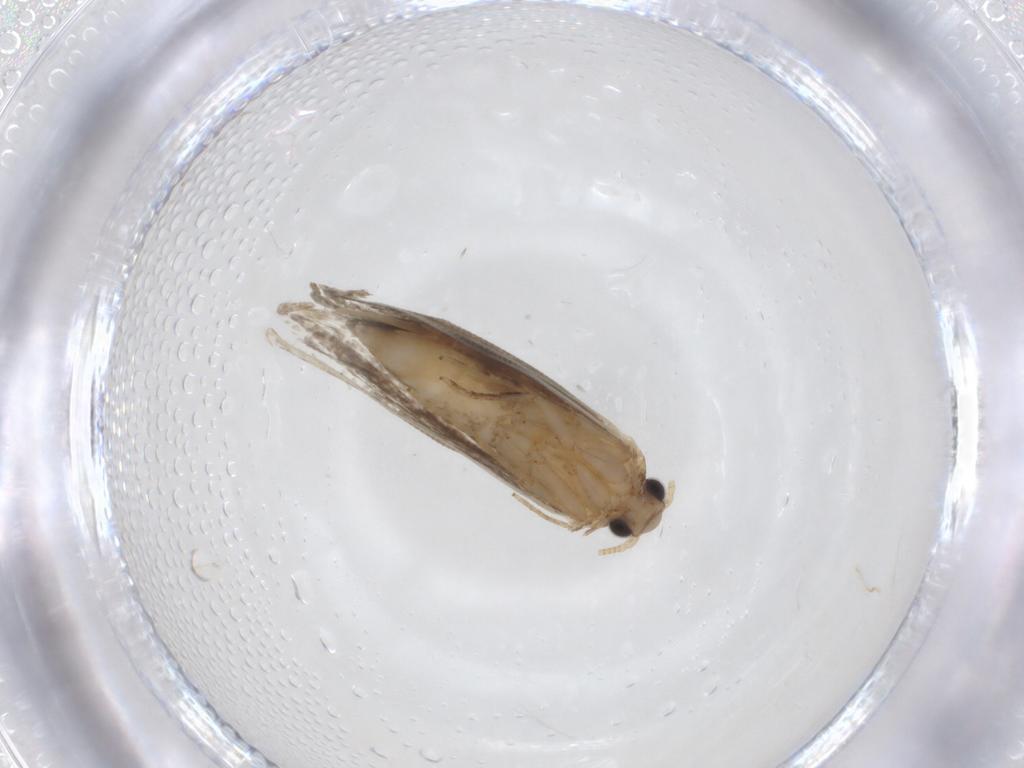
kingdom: Animalia
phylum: Arthropoda
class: Insecta
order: Lepidoptera
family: Tineidae
